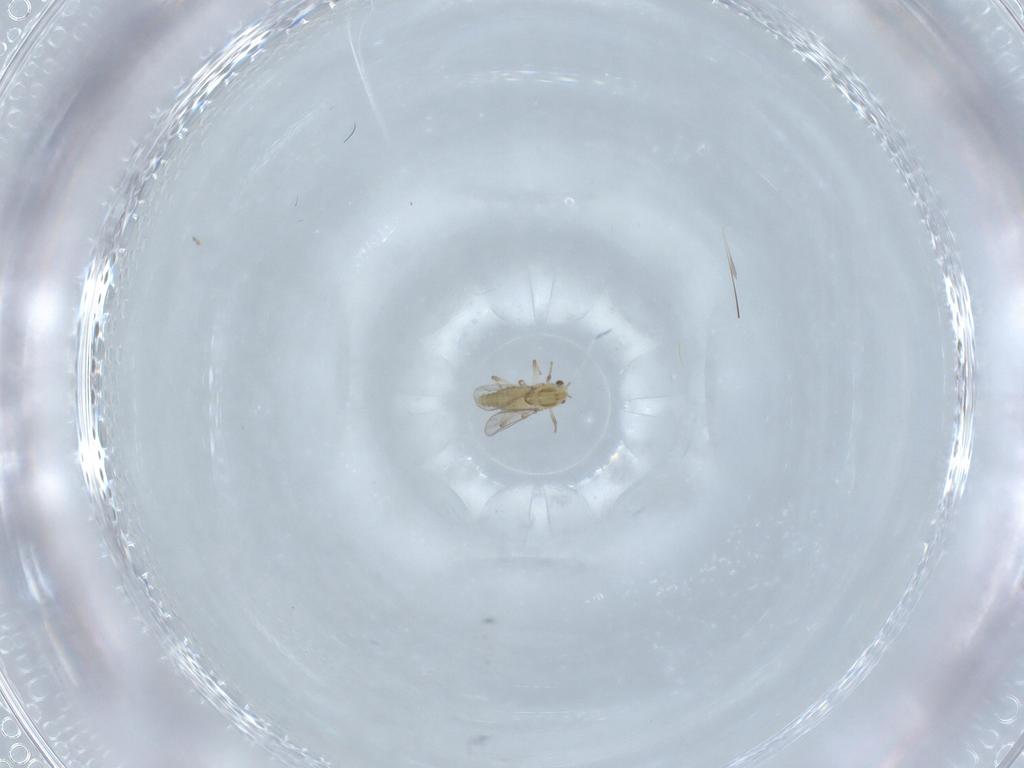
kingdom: Animalia
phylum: Arthropoda
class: Insecta
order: Diptera
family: Chironomidae
